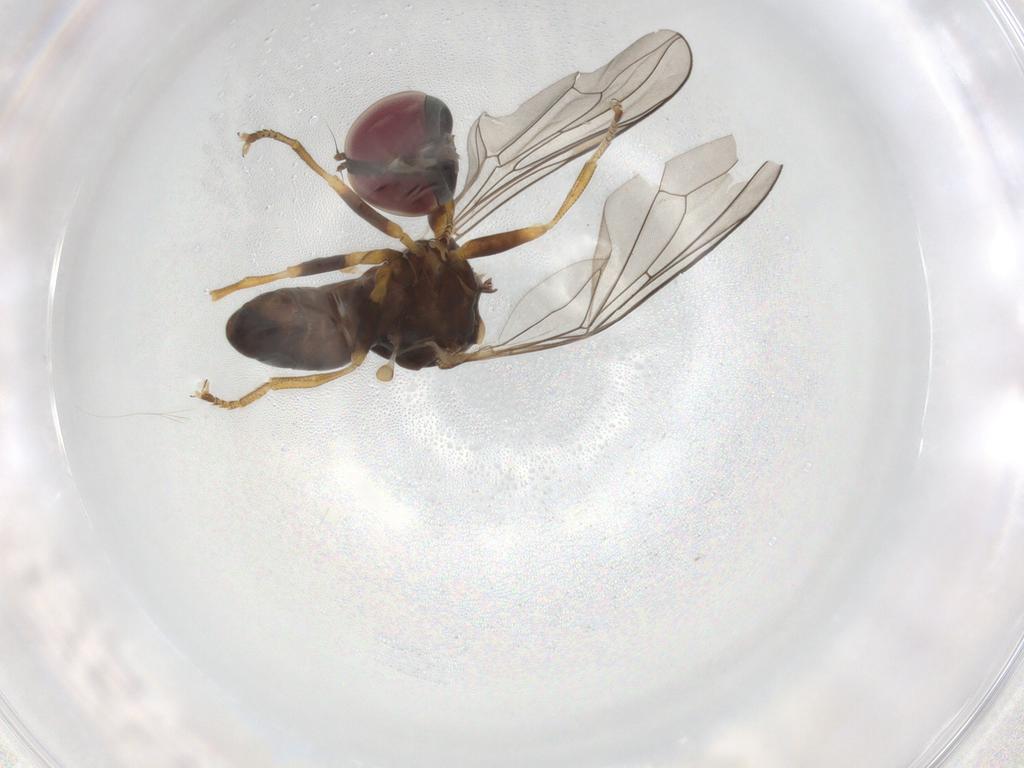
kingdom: Animalia
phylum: Arthropoda
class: Insecta
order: Diptera
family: Pipunculidae
